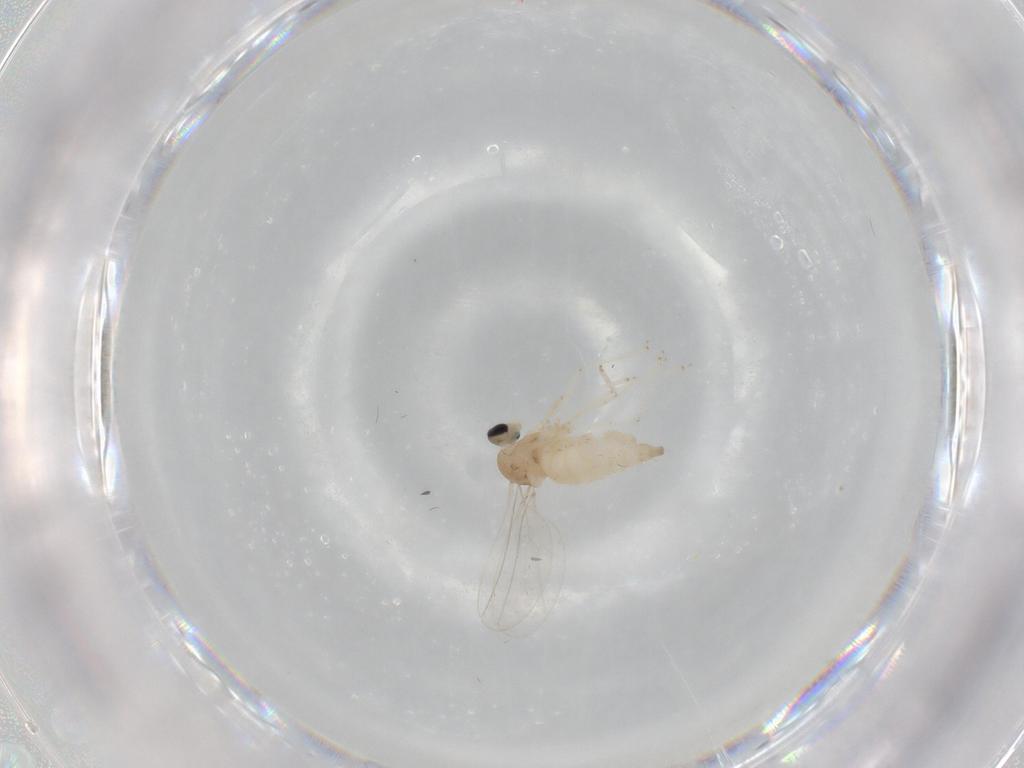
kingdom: Animalia
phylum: Arthropoda
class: Insecta
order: Diptera
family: Cecidomyiidae
